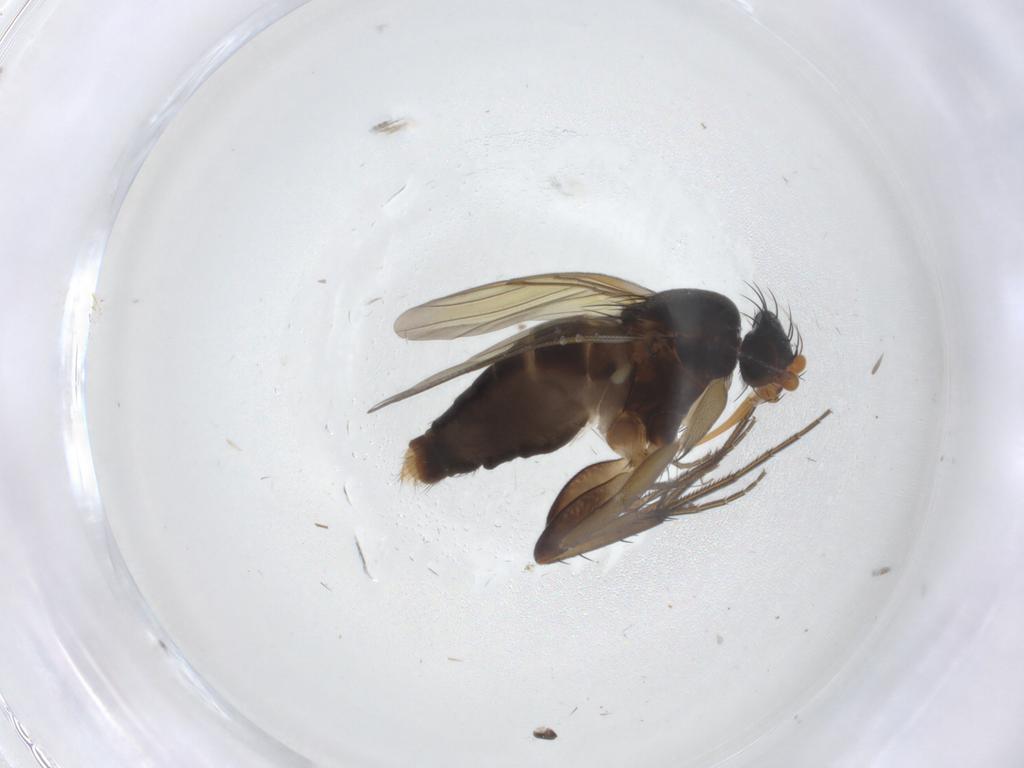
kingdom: Animalia
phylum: Arthropoda
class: Insecta
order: Diptera
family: Phoridae
